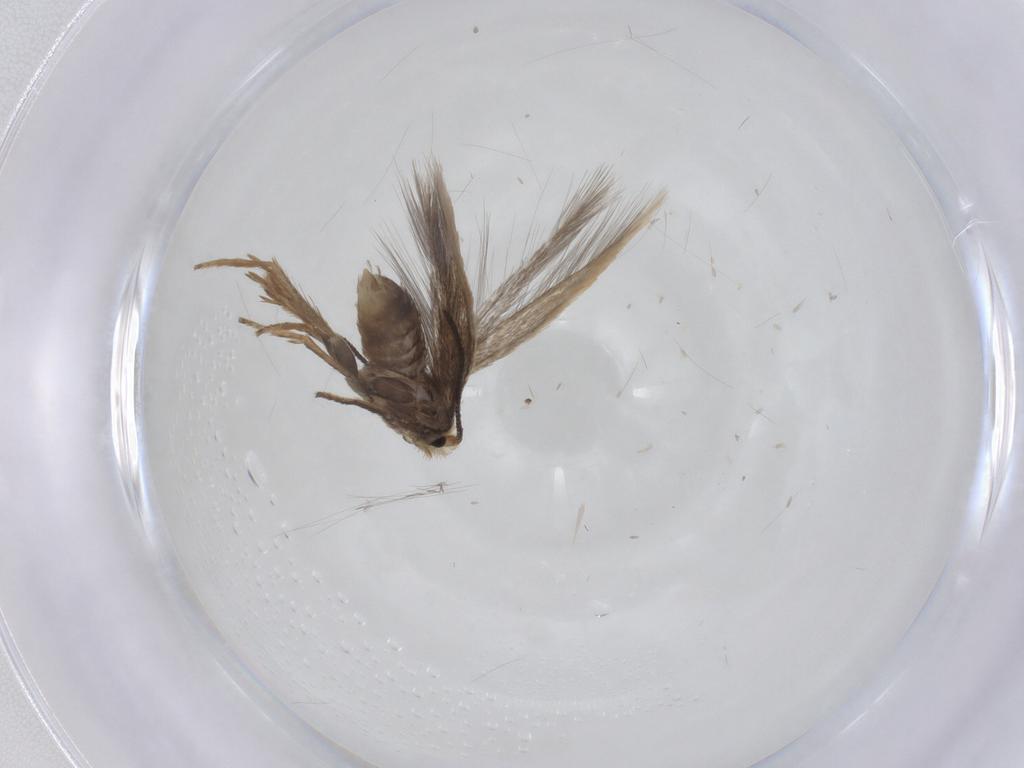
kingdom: Animalia
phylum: Arthropoda
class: Insecta
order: Lepidoptera
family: Nepticulidae
